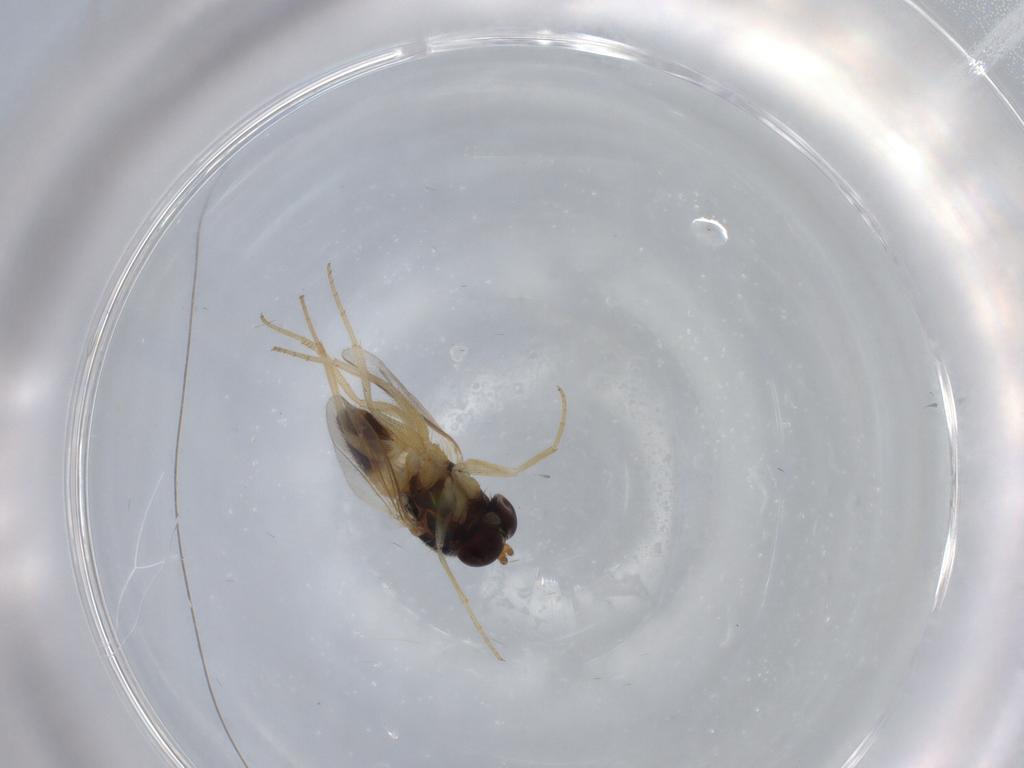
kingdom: Animalia
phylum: Arthropoda
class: Insecta
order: Diptera
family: Dolichopodidae
